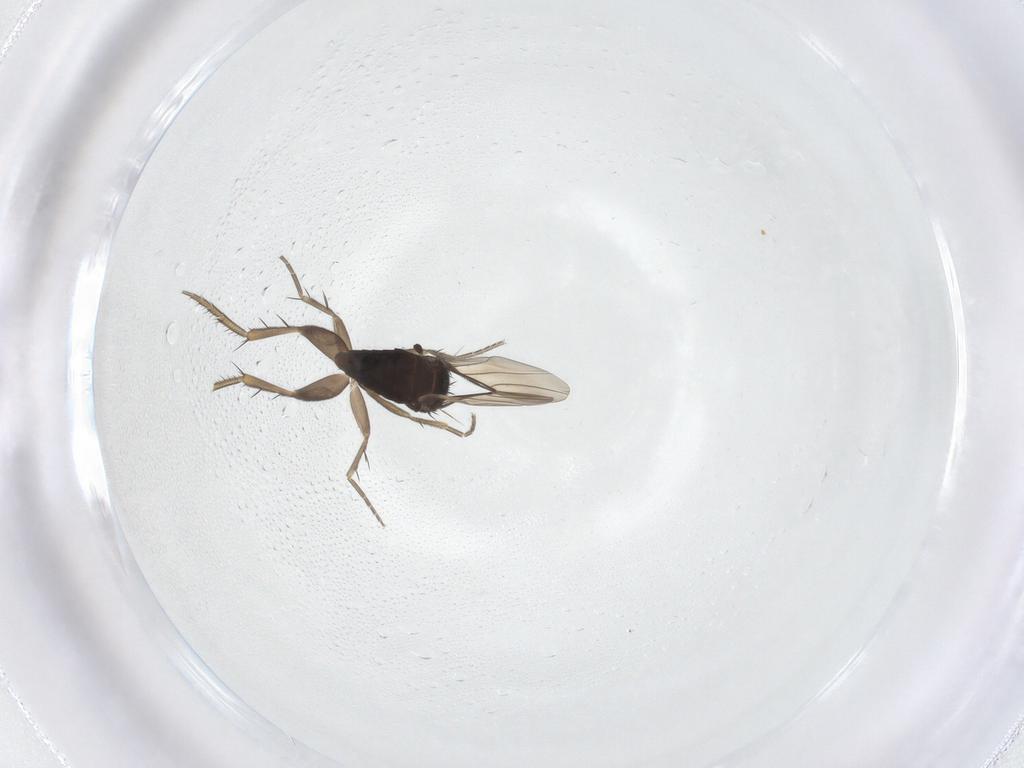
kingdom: Animalia
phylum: Arthropoda
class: Insecta
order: Diptera
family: Phoridae
